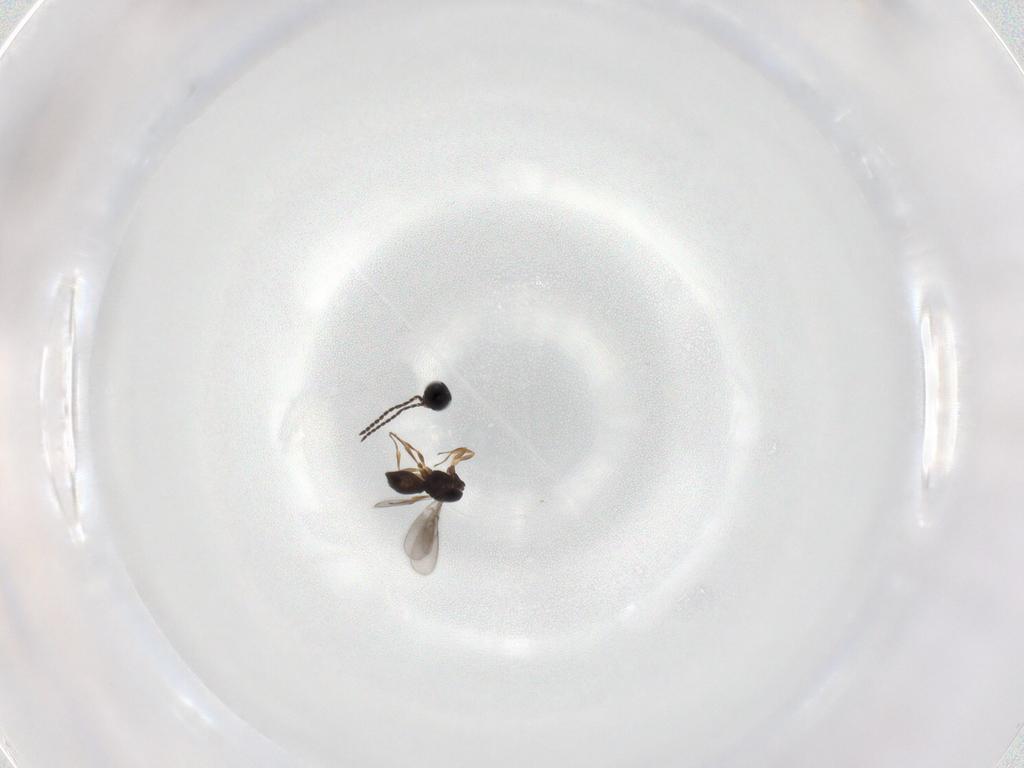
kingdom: Animalia
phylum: Arthropoda
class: Insecta
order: Hymenoptera
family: Scelionidae
